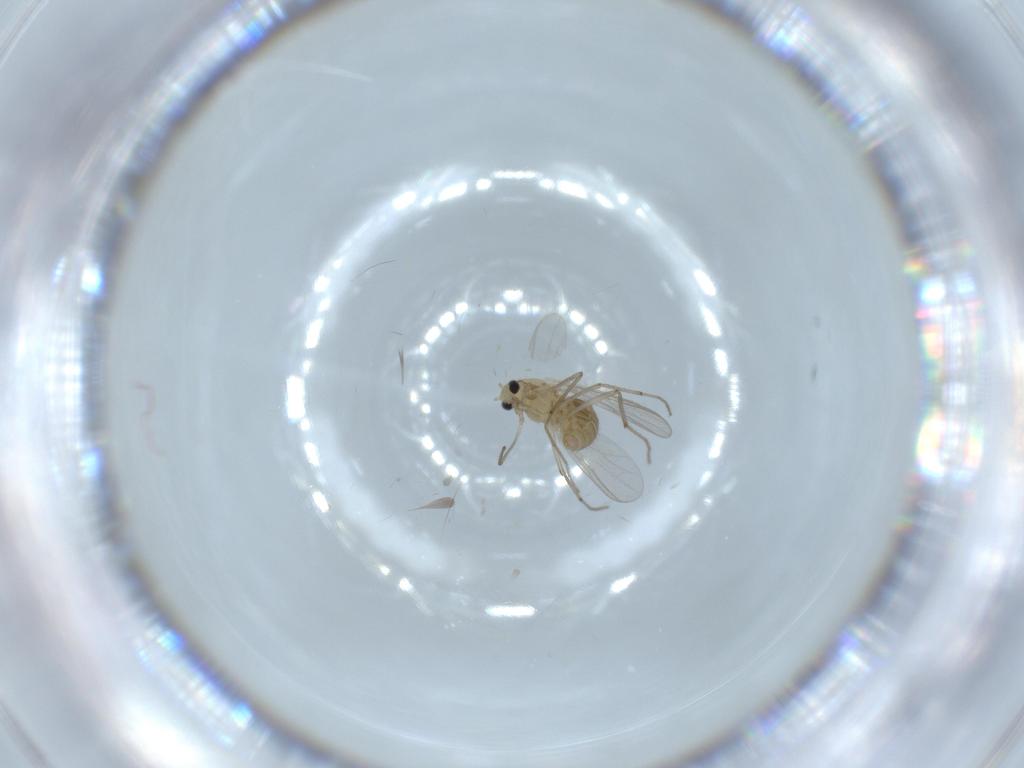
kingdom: Animalia
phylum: Arthropoda
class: Insecta
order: Diptera
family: Chironomidae
